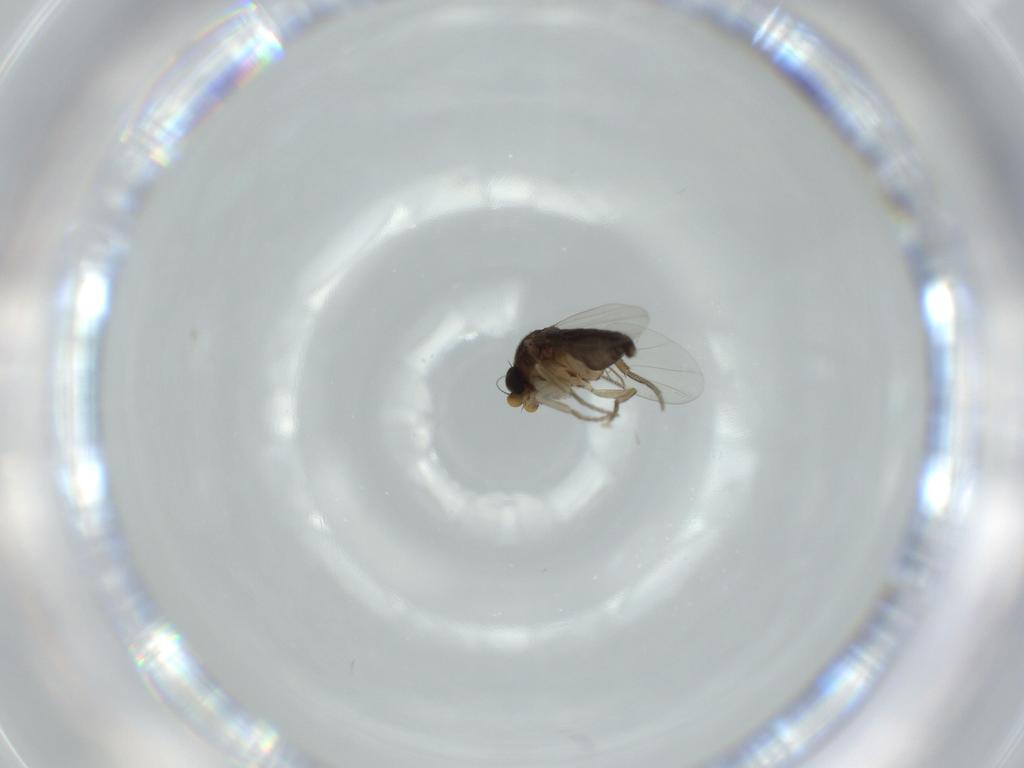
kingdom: Animalia
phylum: Arthropoda
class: Insecta
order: Diptera
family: Phoridae
